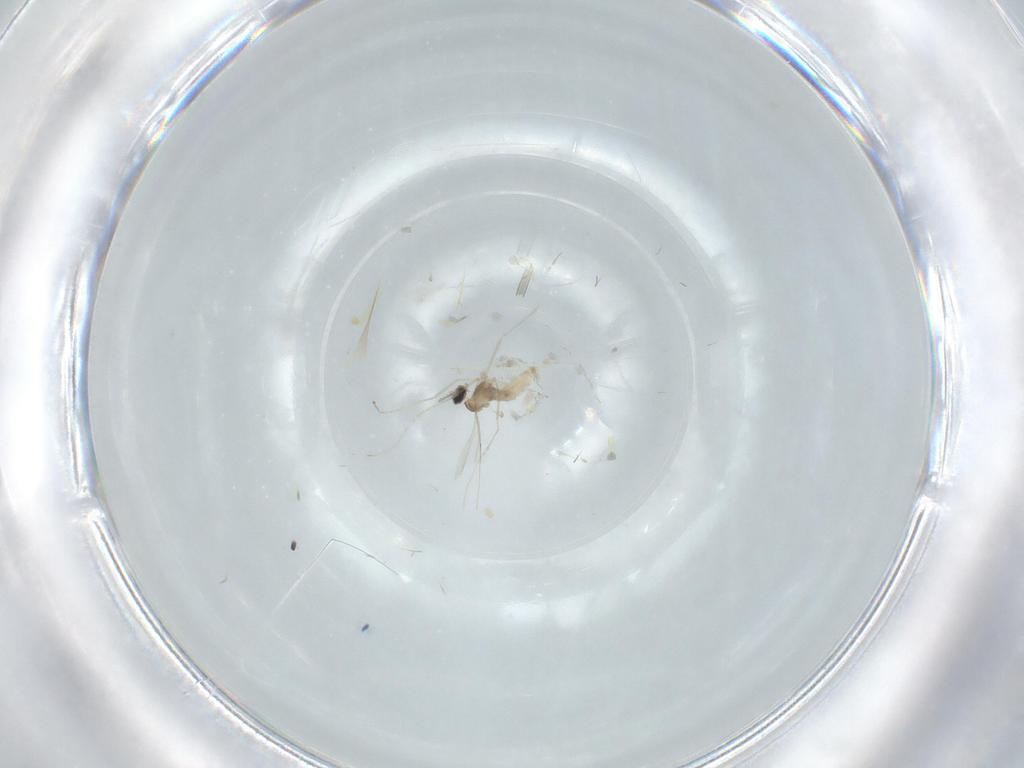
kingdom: Animalia
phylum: Arthropoda
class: Insecta
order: Diptera
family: Cecidomyiidae
